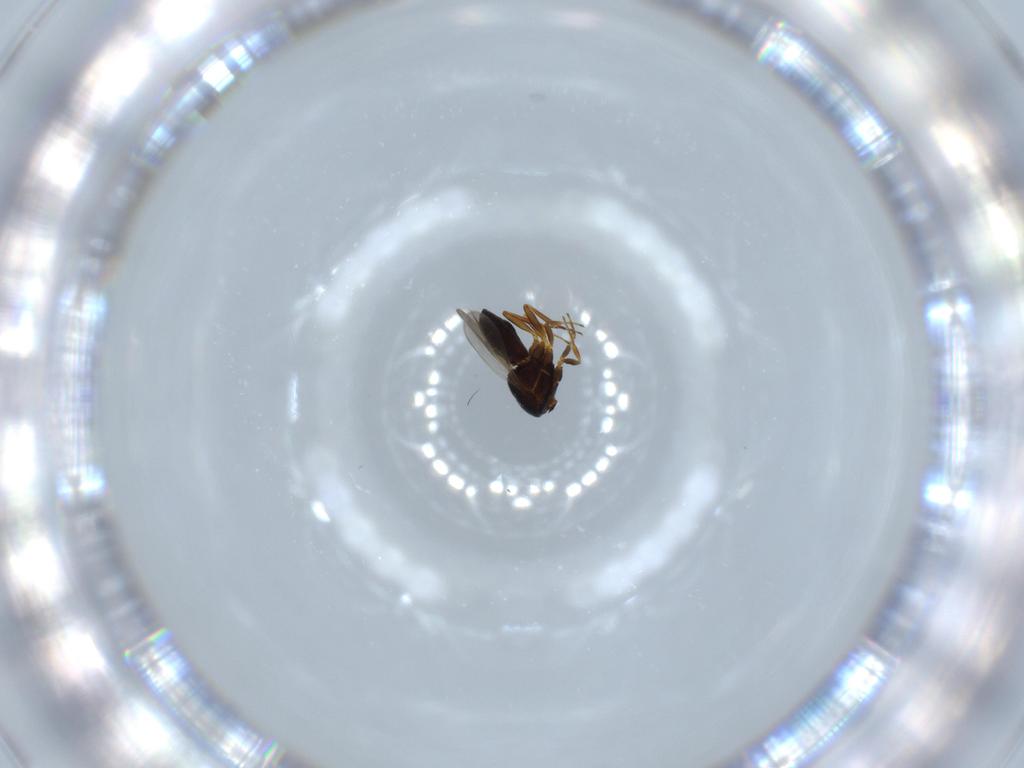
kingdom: Animalia
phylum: Arthropoda
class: Insecta
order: Hymenoptera
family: Scelionidae
